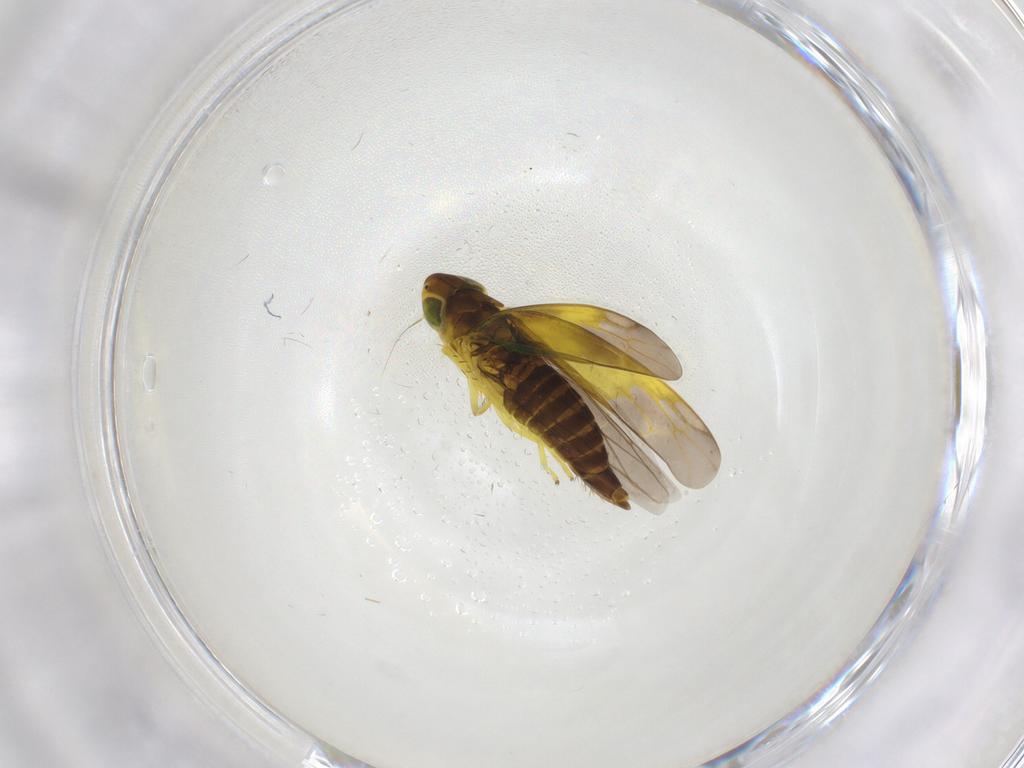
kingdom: Animalia
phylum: Arthropoda
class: Insecta
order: Hemiptera
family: Cicadellidae
